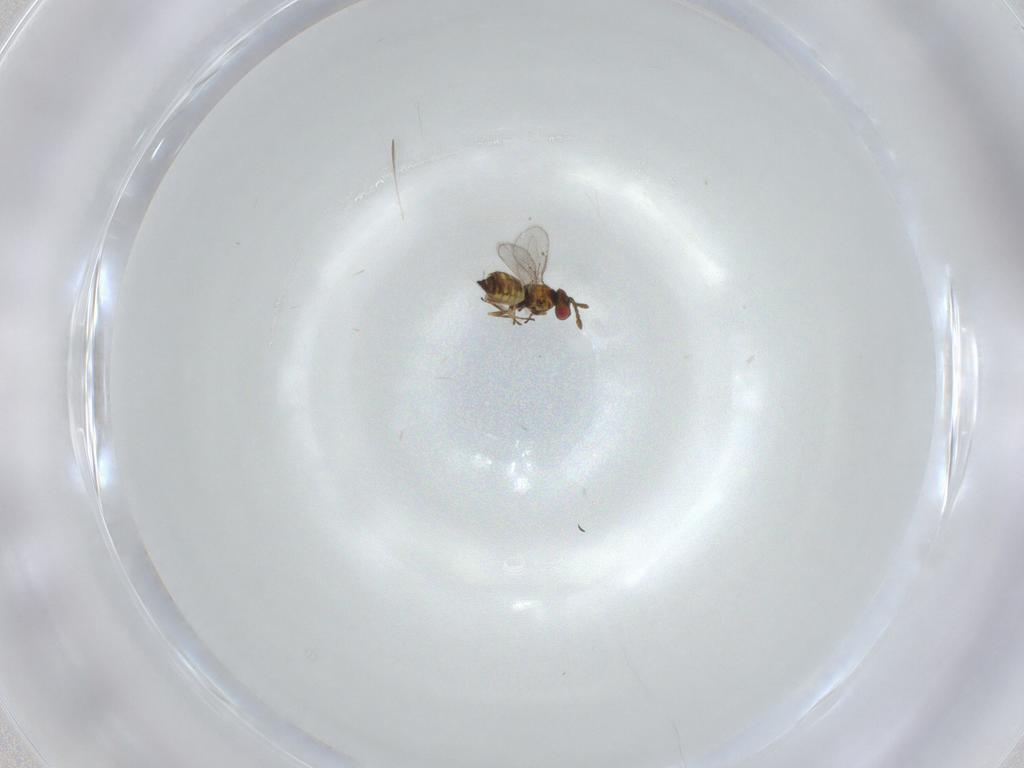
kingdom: Animalia
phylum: Arthropoda
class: Insecta
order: Hymenoptera
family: Eulophidae
